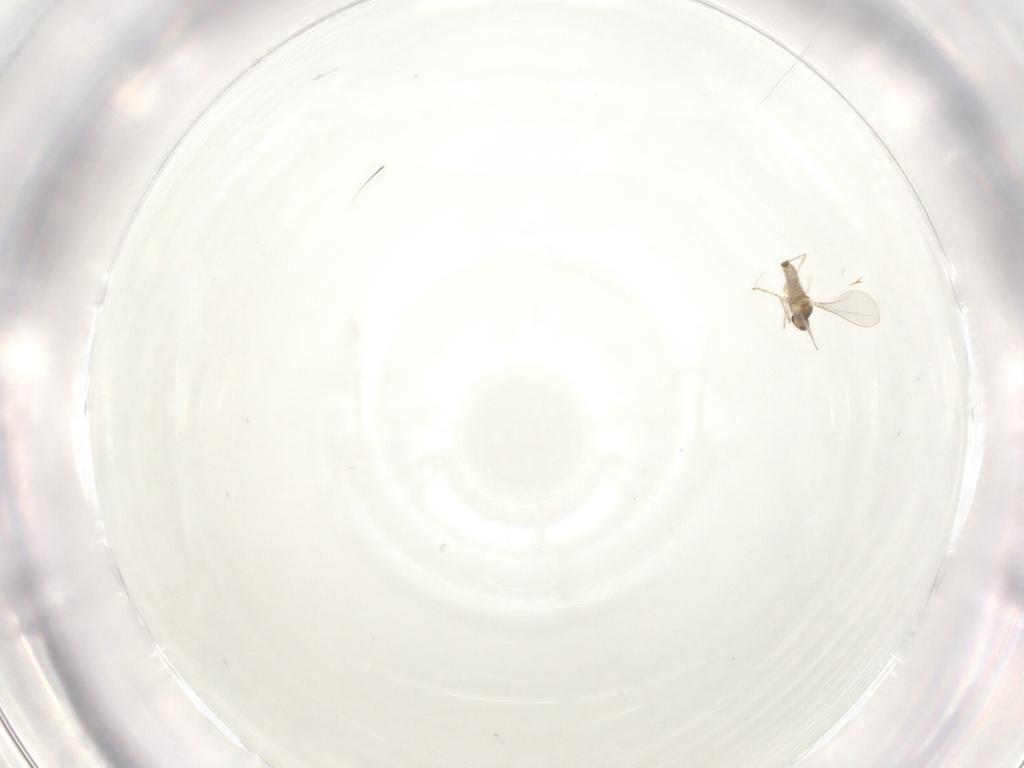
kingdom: Animalia
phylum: Arthropoda
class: Insecta
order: Diptera
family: Cecidomyiidae
